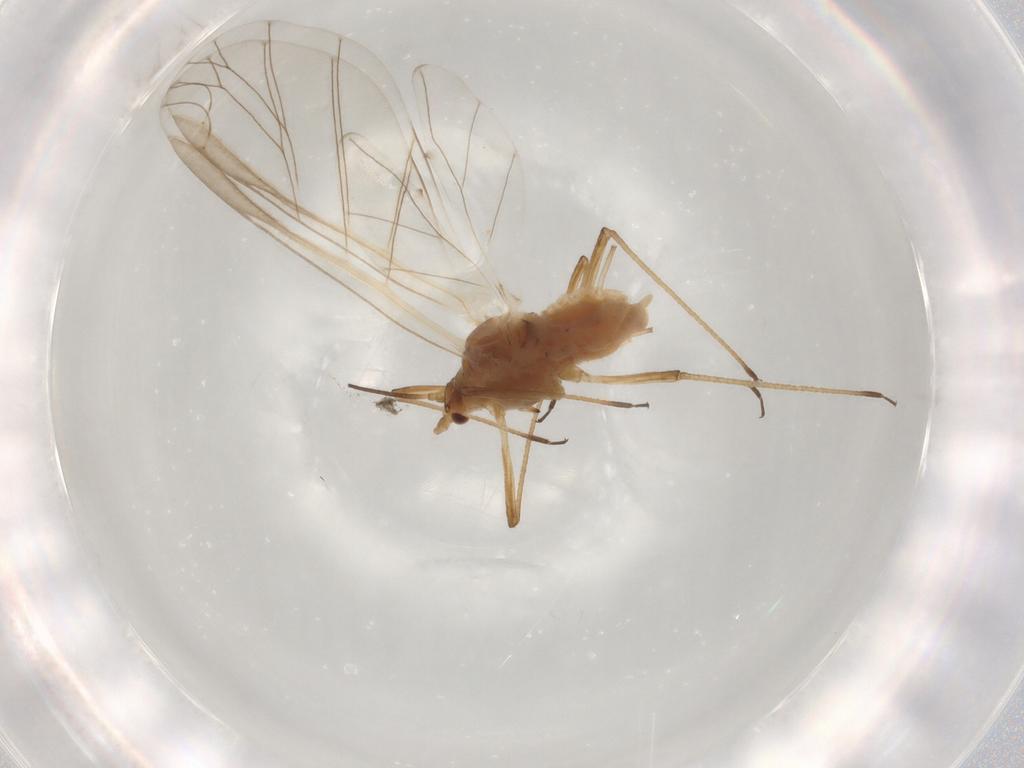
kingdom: Animalia
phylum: Arthropoda
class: Insecta
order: Hemiptera
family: Aphididae
